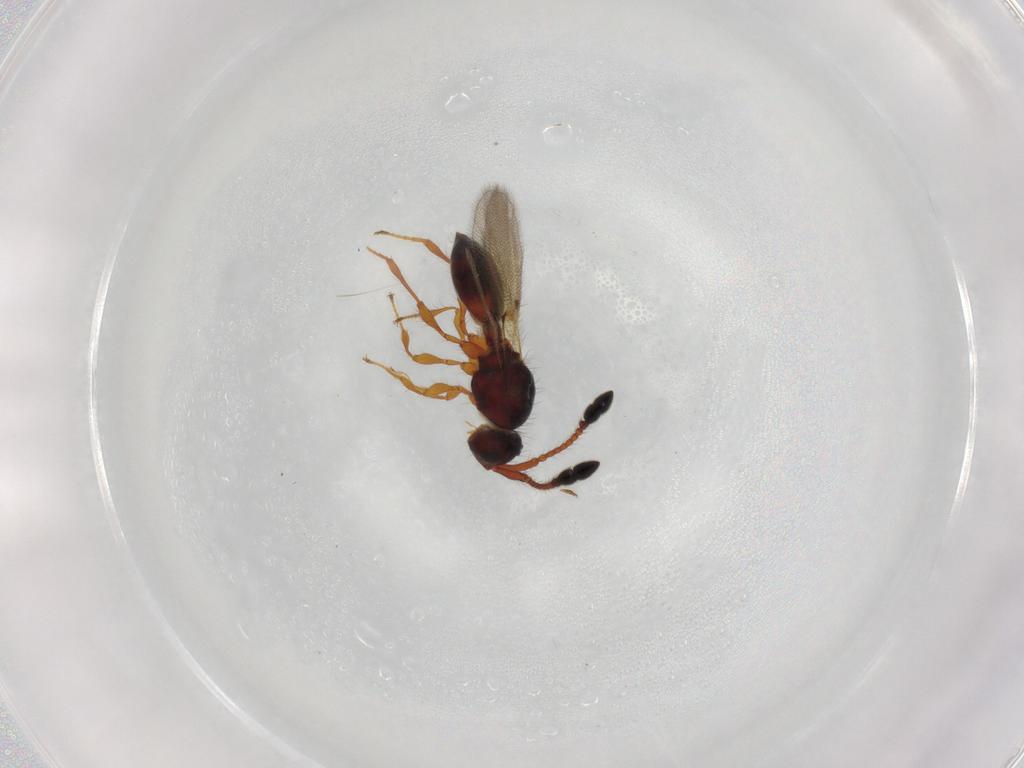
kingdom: Animalia
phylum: Arthropoda
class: Insecta
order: Hymenoptera
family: Diapriidae
